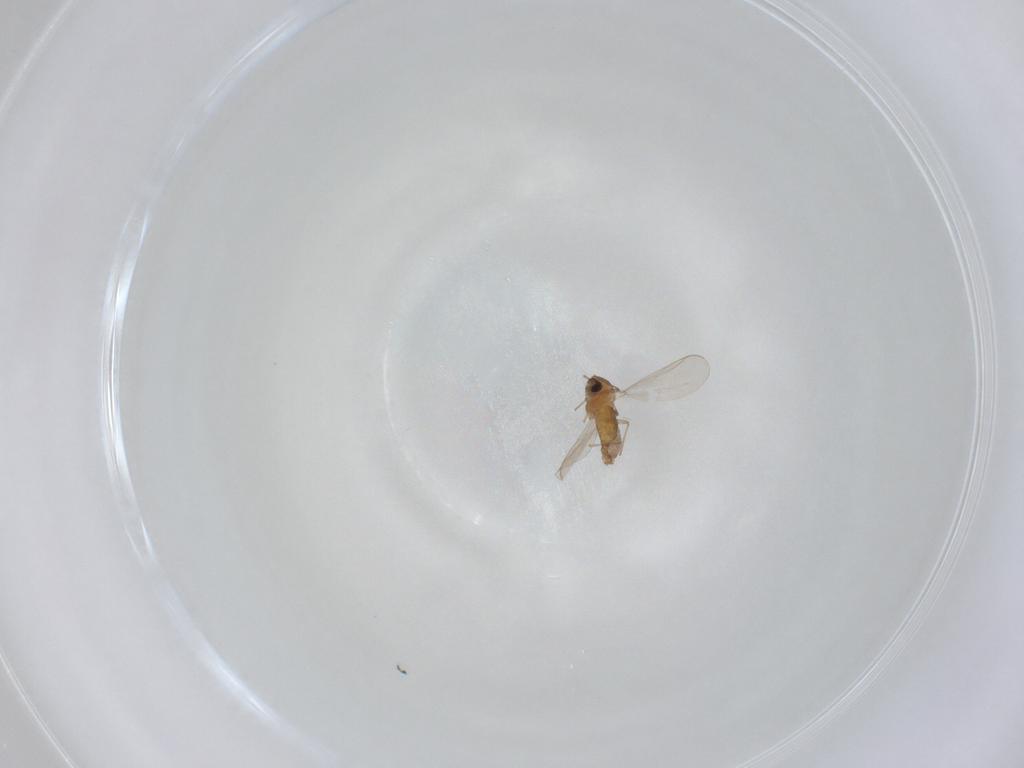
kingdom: Animalia
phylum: Arthropoda
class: Insecta
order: Diptera
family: Chironomidae
